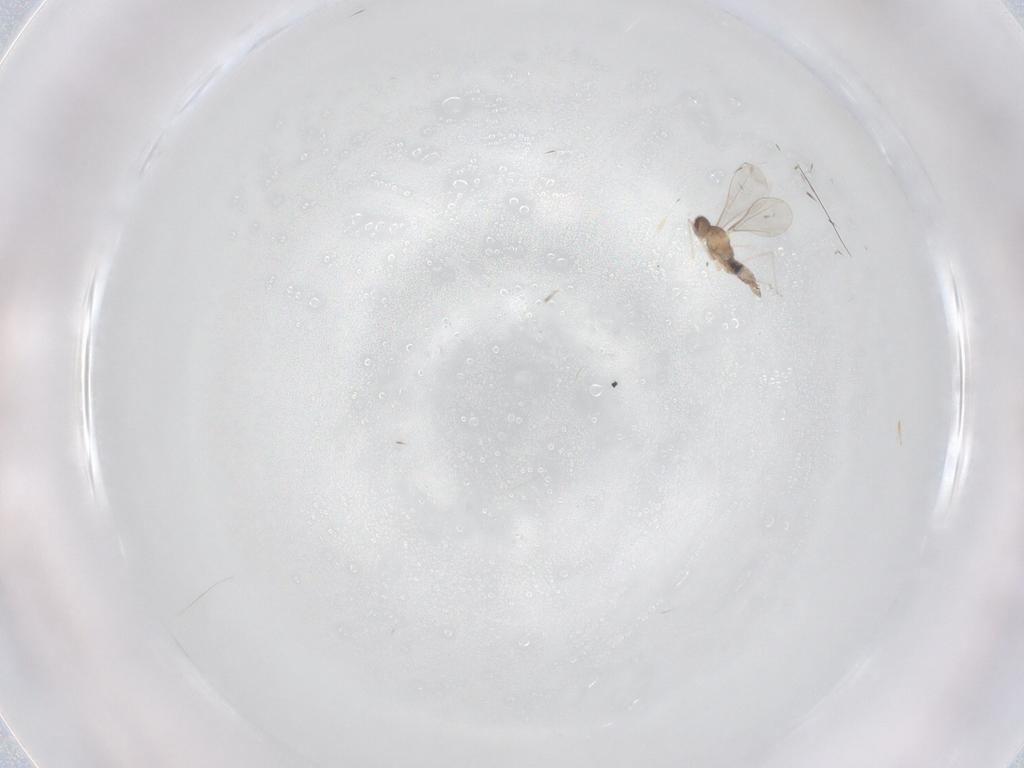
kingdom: Animalia
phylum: Arthropoda
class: Insecta
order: Diptera
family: Cecidomyiidae
